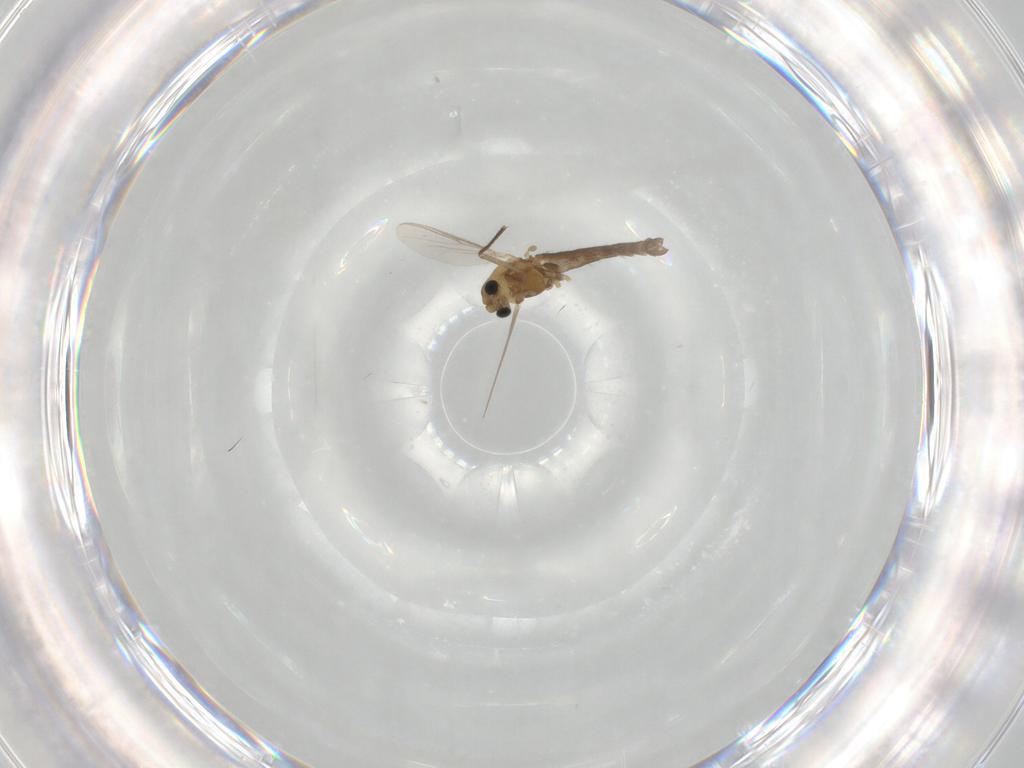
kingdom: Animalia
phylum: Arthropoda
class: Insecta
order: Diptera
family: Chironomidae
